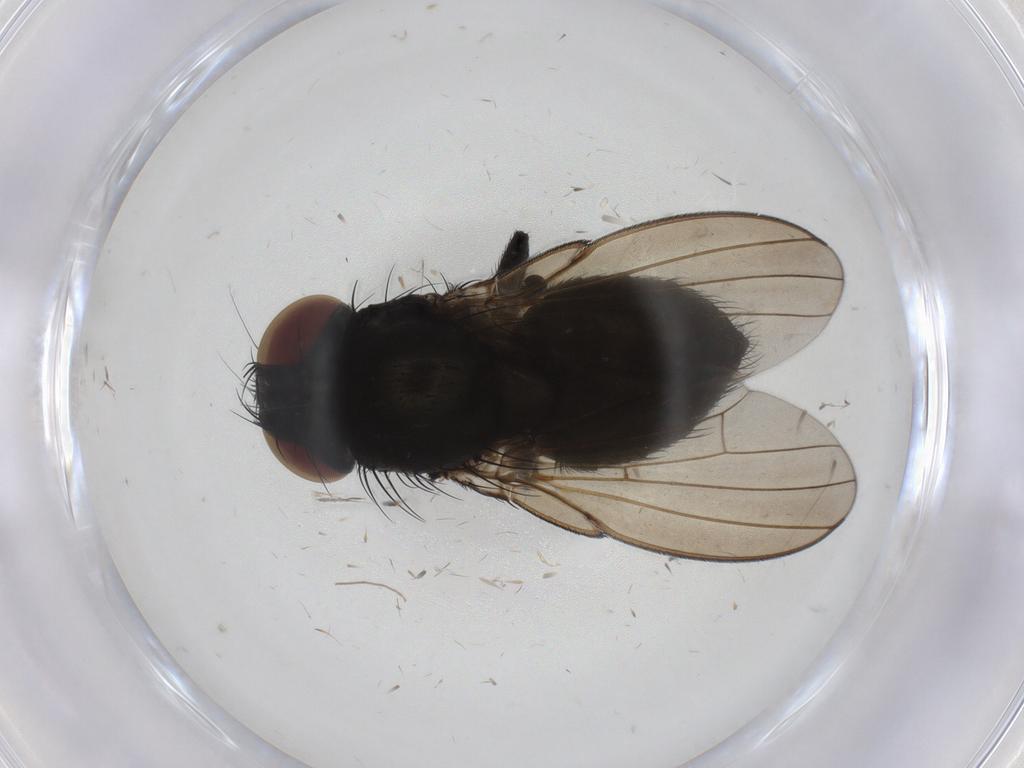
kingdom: Animalia
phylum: Arthropoda
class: Insecta
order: Diptera
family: Milichiidae
